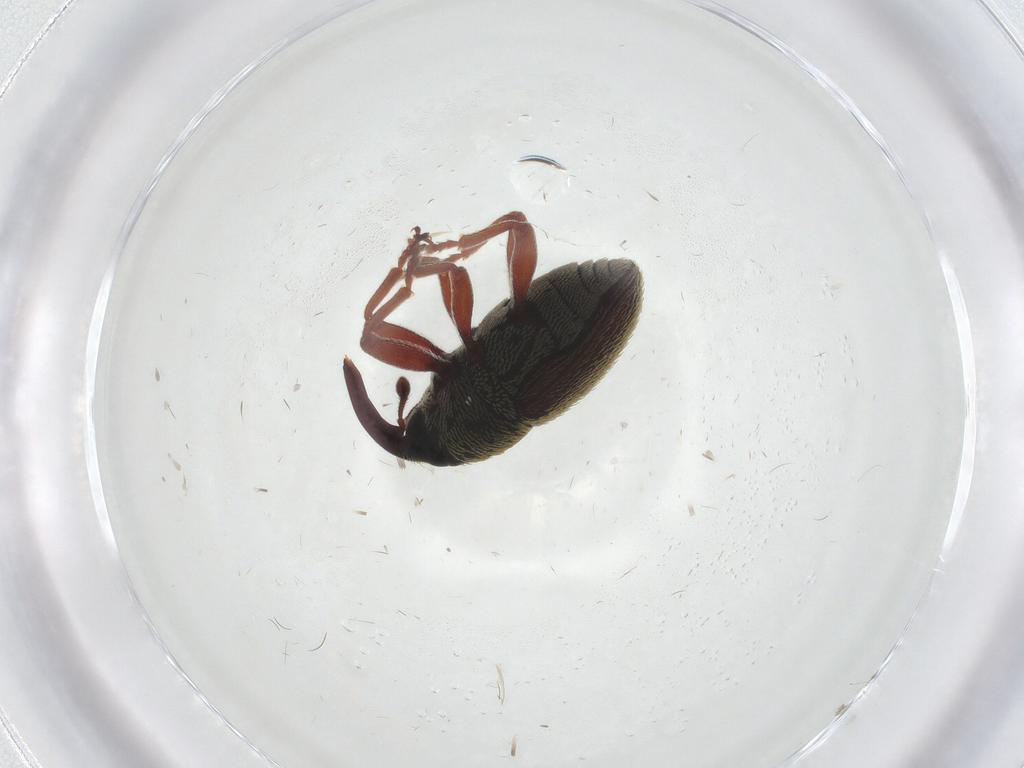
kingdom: Animalia
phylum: Arthropoda
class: Insecta
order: Coleoptera
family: Curculionidae
